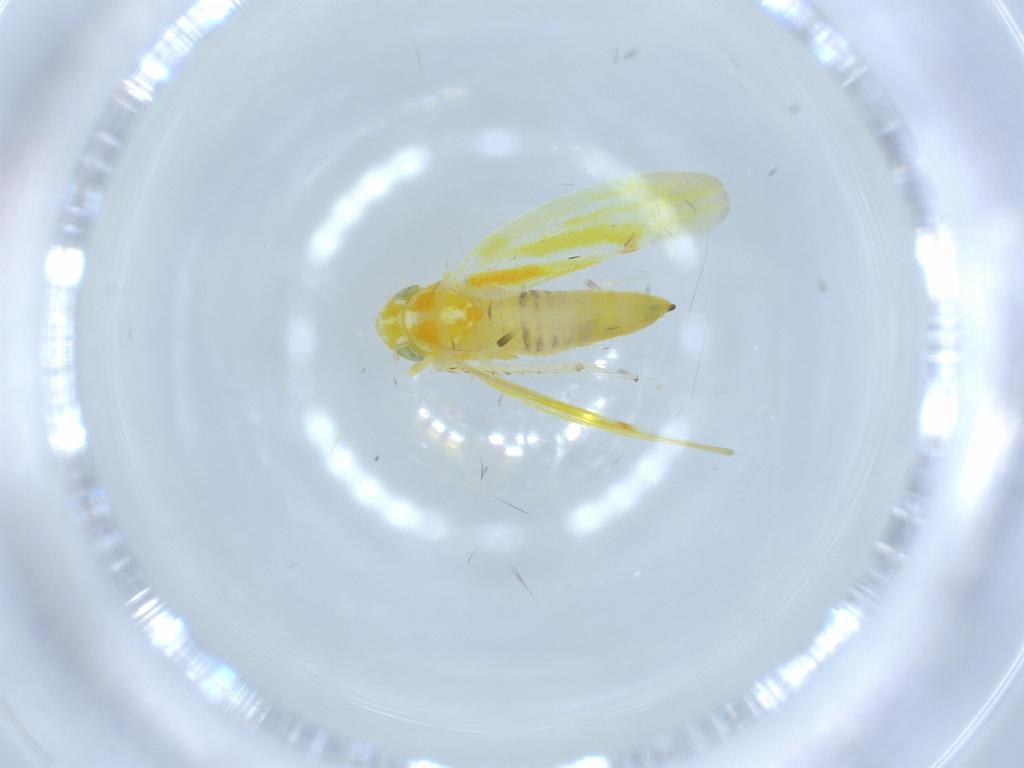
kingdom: Animalia
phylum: Arthropoda
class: Insecta
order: Hemiptera
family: Cicadellidae
